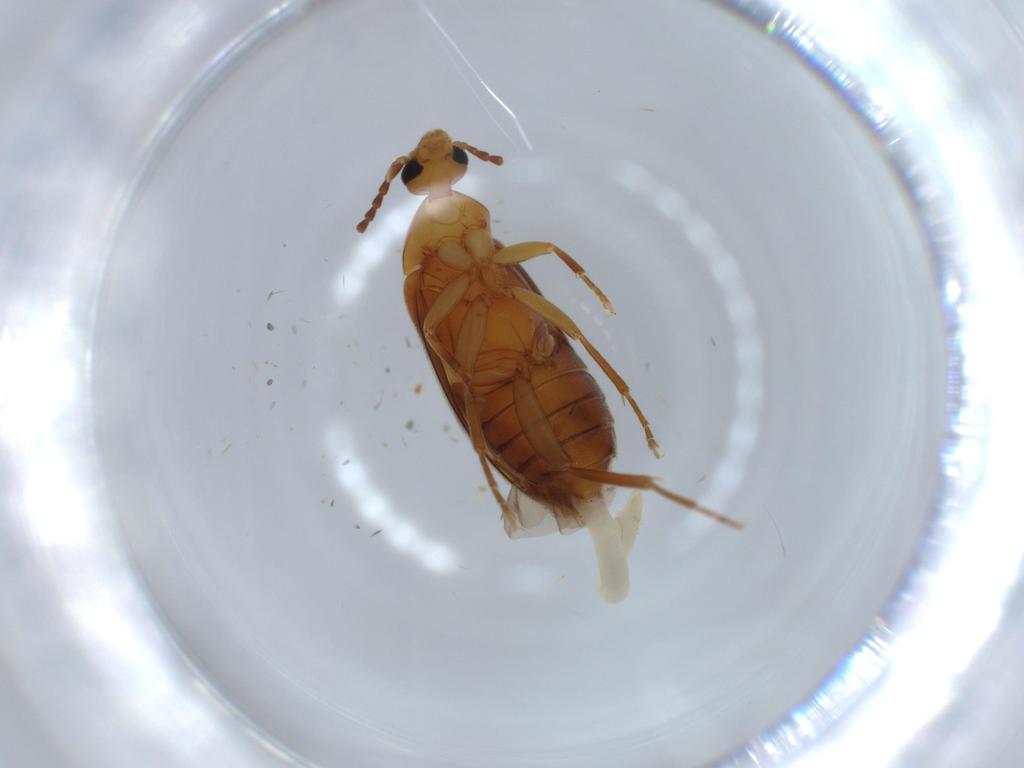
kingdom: Animalia
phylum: Arthropoda
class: Insecta
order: Coleoptera
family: Scraptiidae
